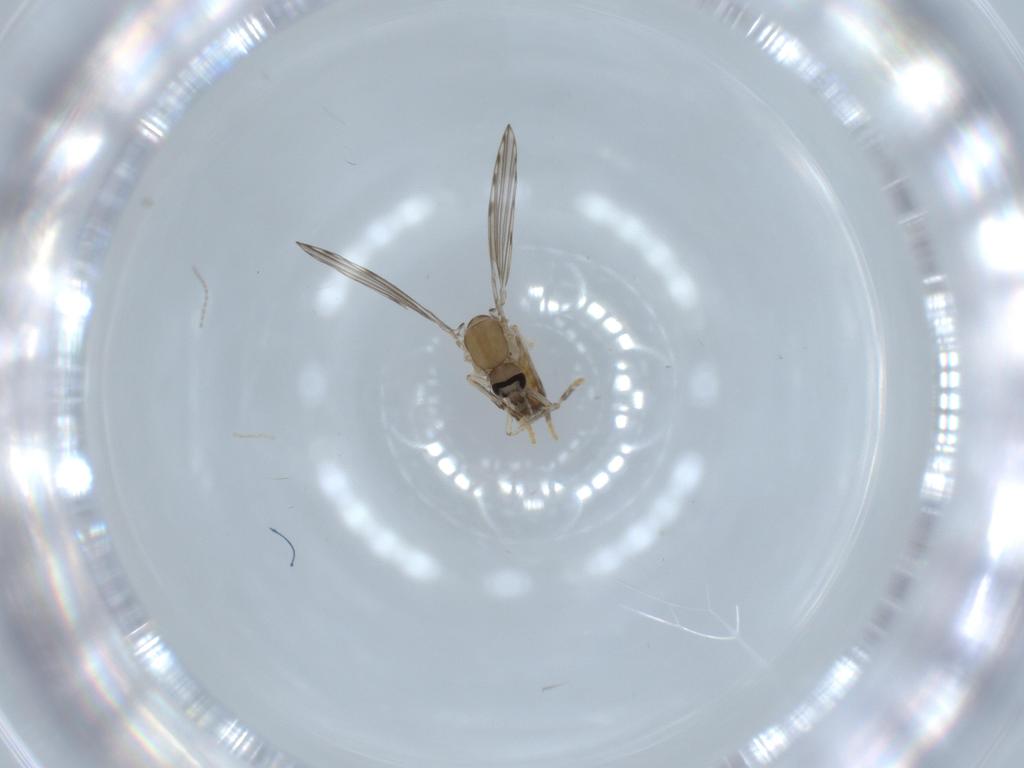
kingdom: Animalia
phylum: Arthropoda
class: Insecta
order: Diptera
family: Psychodidae
